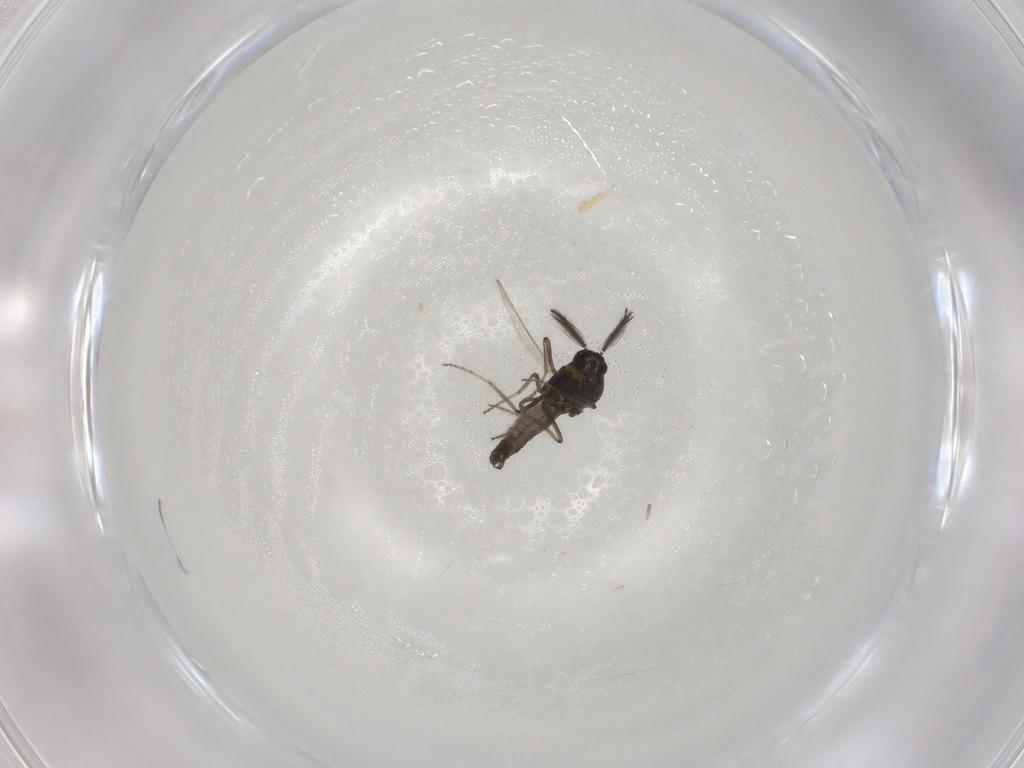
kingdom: Animalia
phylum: Arthropoda
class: Insecta
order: Diptera
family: Ceratopogonidae
